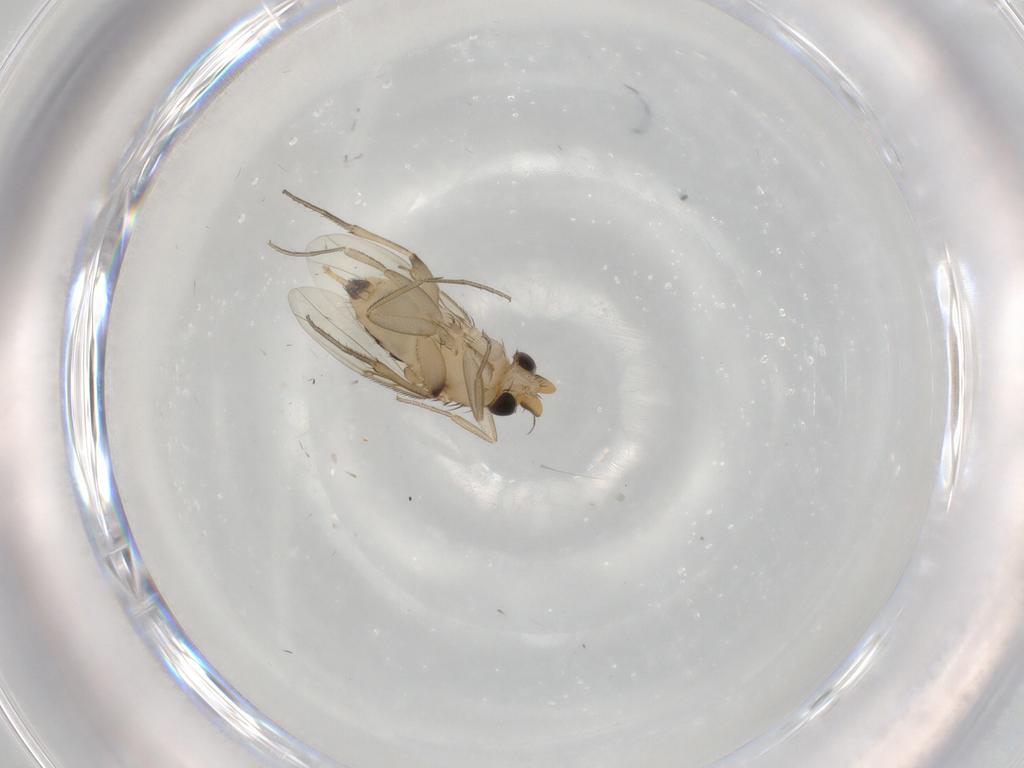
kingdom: Animalia
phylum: Arthropoda
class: Insecta
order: Diptera
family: Phoridae
